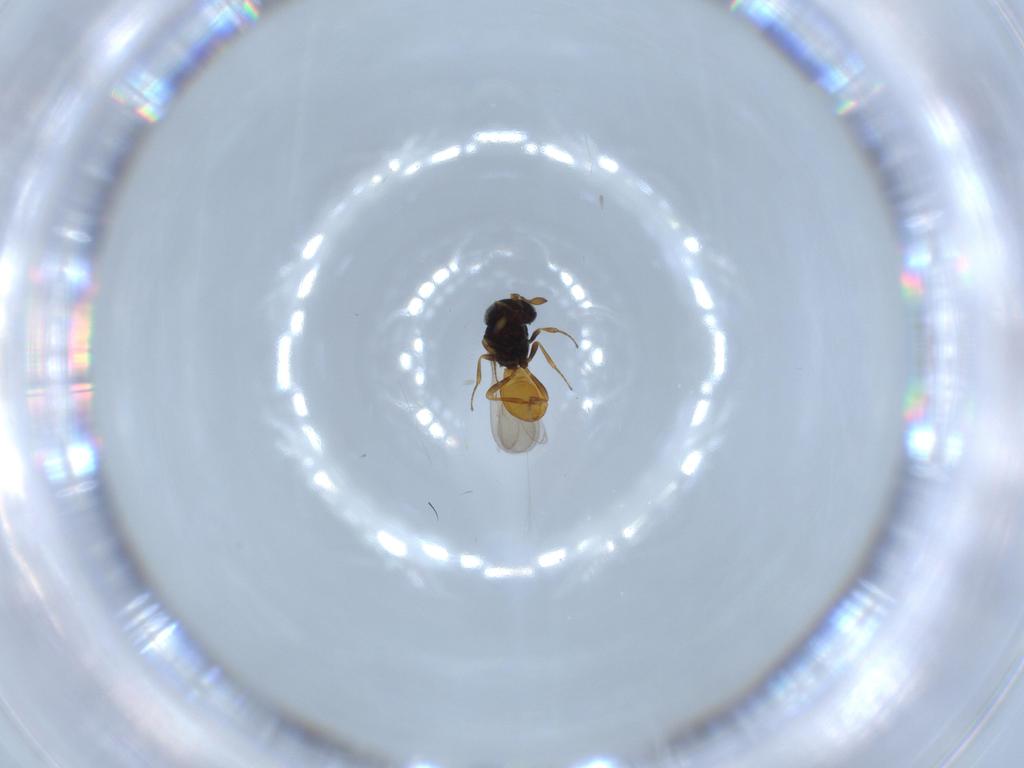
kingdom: Animalia
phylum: Arthropoda
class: Insecta
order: Hymenoptera
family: Scelionidae
